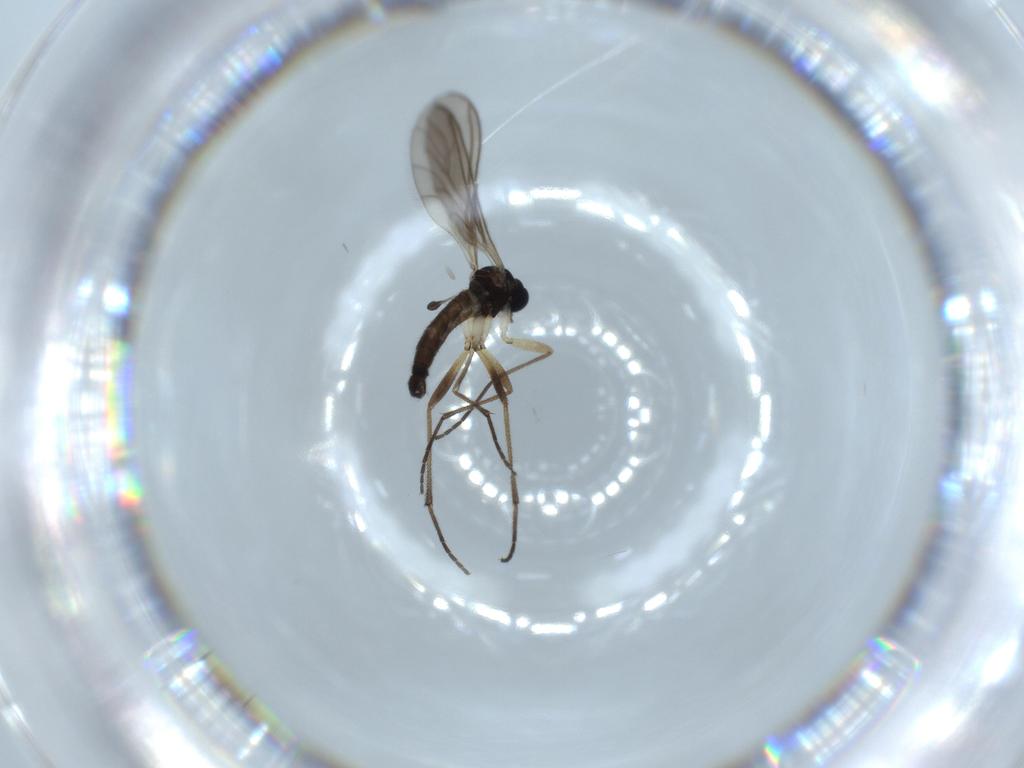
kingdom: Animalia
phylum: Arthropoda
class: Insecta
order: Diptera
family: Sciaridae
